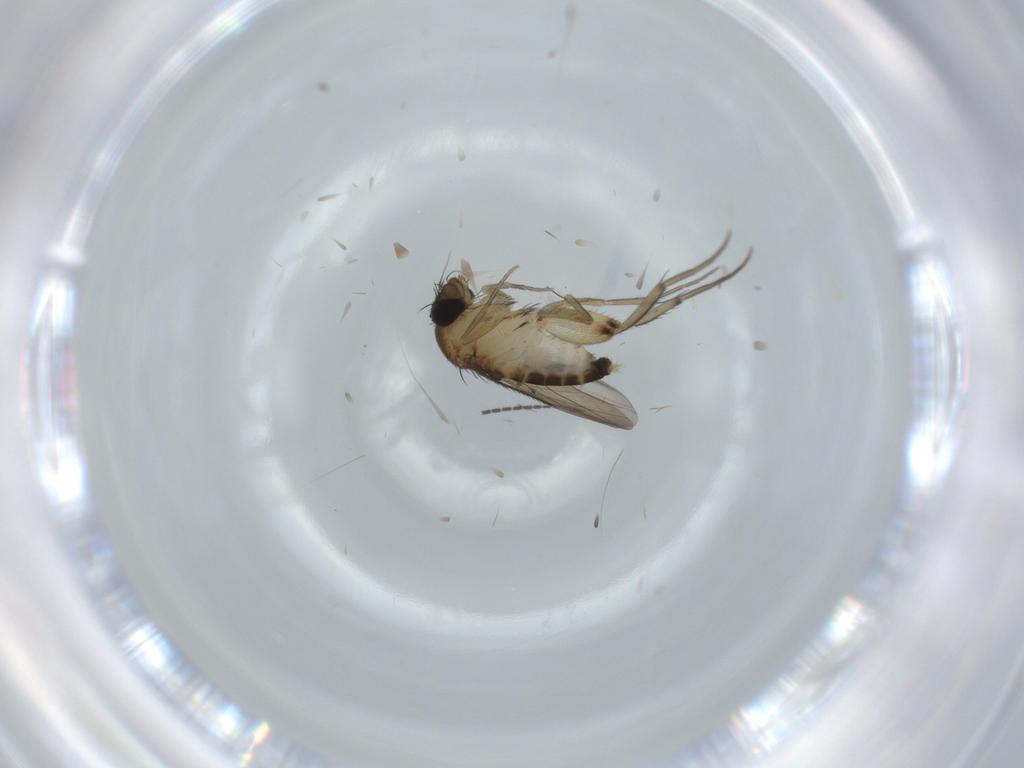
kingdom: Animalia
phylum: Arthropoda
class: Insecta
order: Diptera
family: Phoridae
